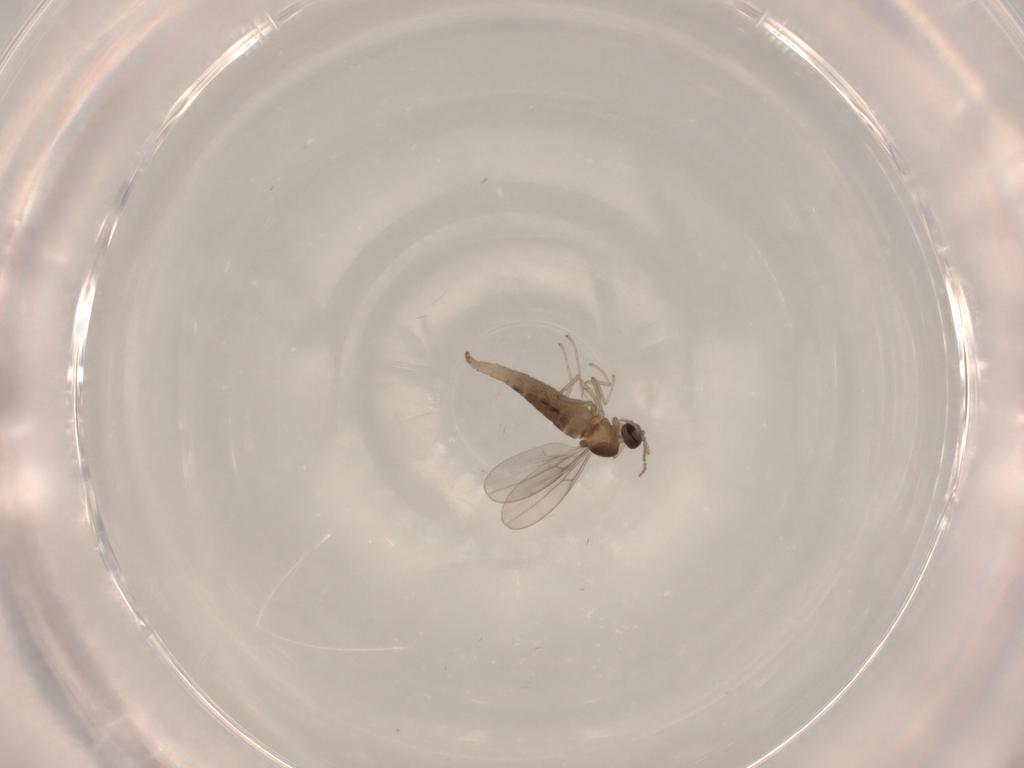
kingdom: Animalia
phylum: Arthropoda
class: Insecta
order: Diptera
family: Cecidomyiidae
